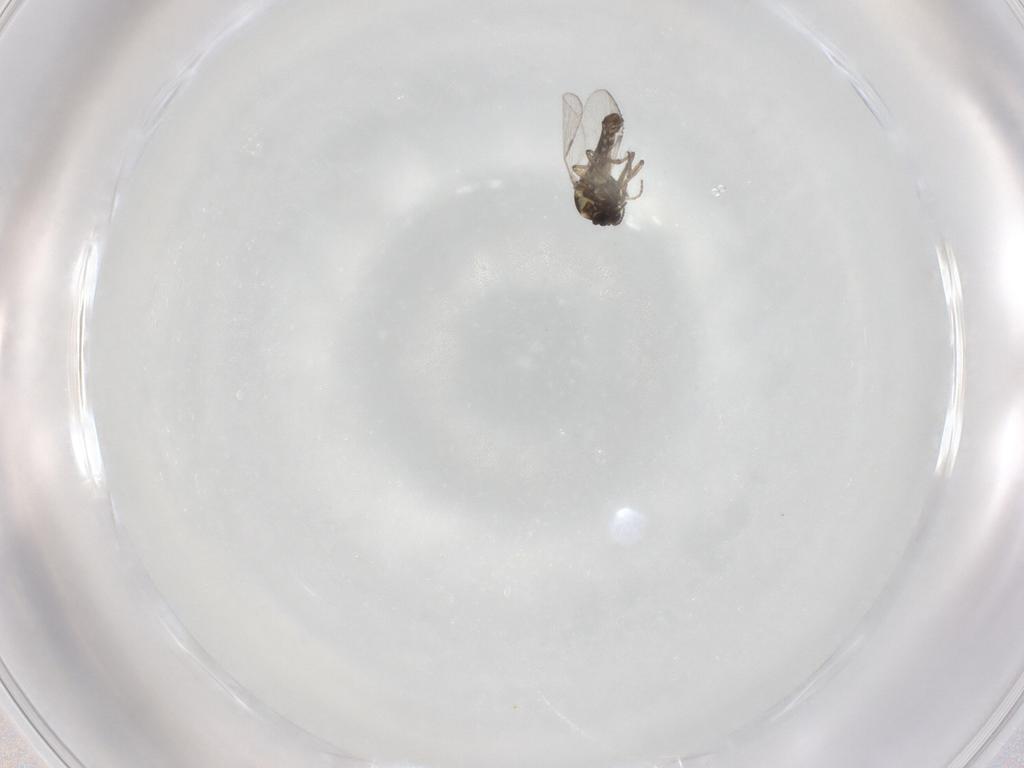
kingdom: Animalia
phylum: Arthropoda
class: Insecta
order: Diptera
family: Ceratopogonidae
